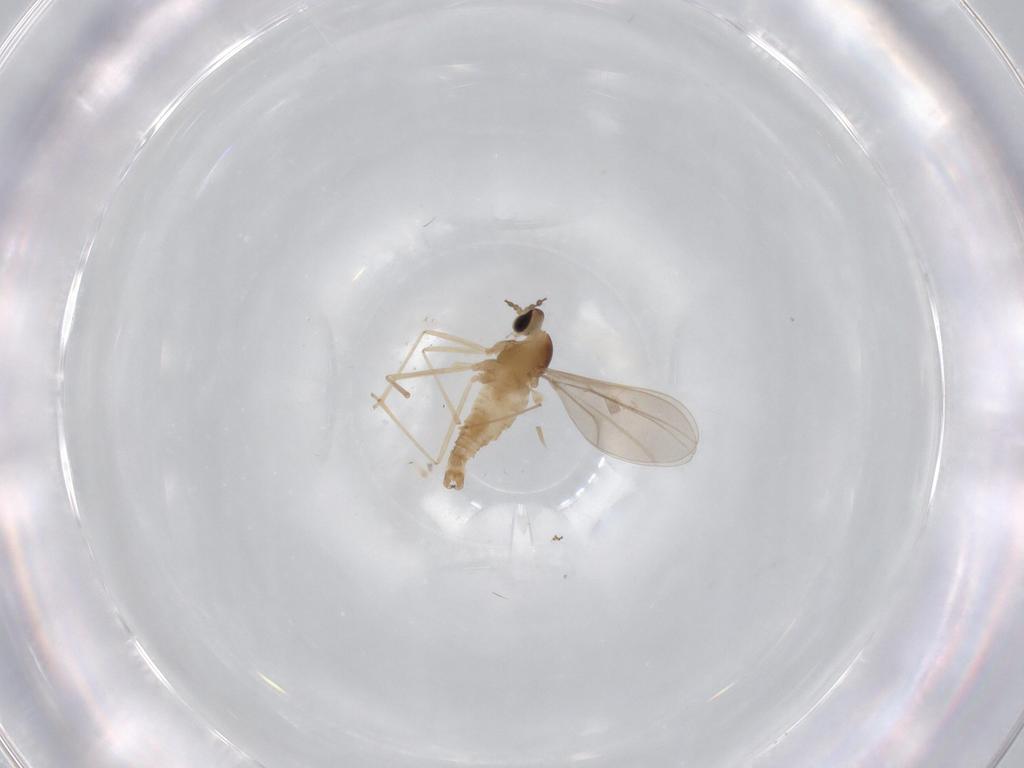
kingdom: Animalia
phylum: Arthropoda
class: Insecta
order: Diptera
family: Cecidomyiidae
